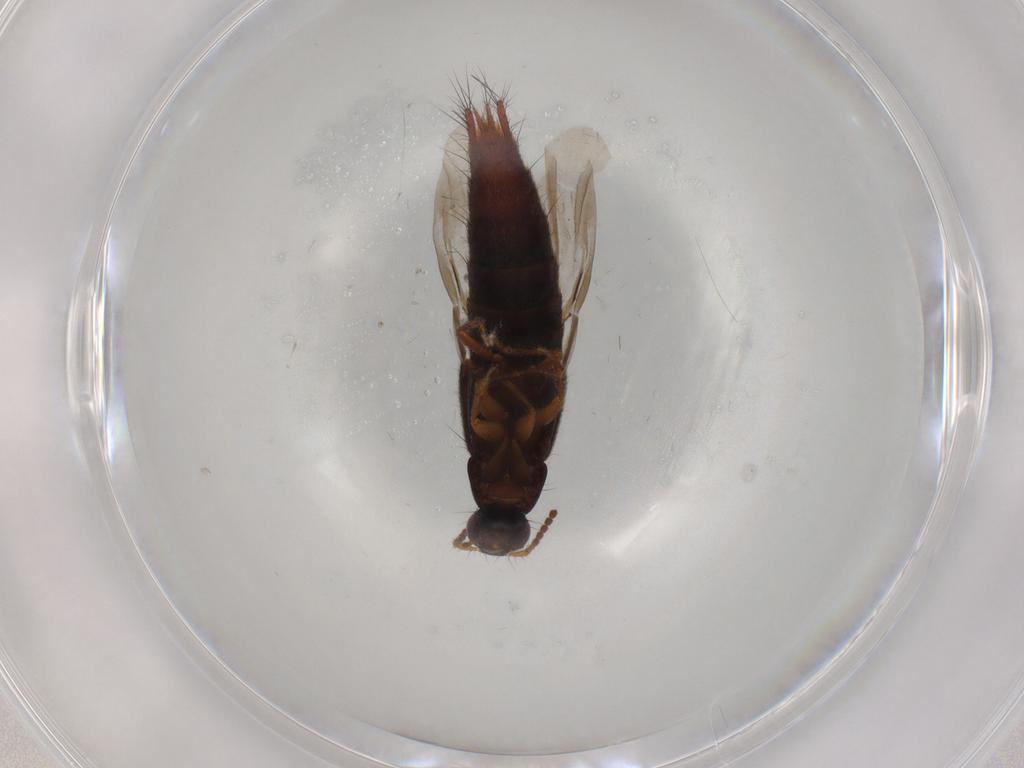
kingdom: Animalia
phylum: Arthropoda
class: Insecta
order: Coleoptera
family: Staphylinidae
